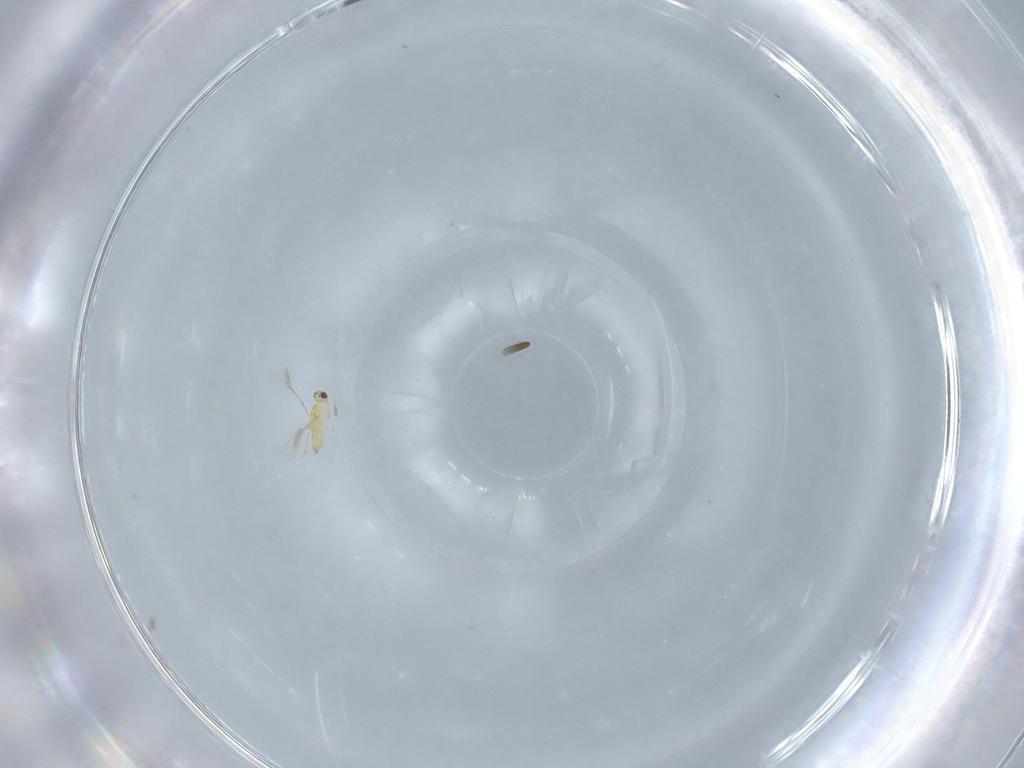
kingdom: Animalia
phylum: Arthropoda
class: Insecta
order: Hymenoptera
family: Mymaridae
